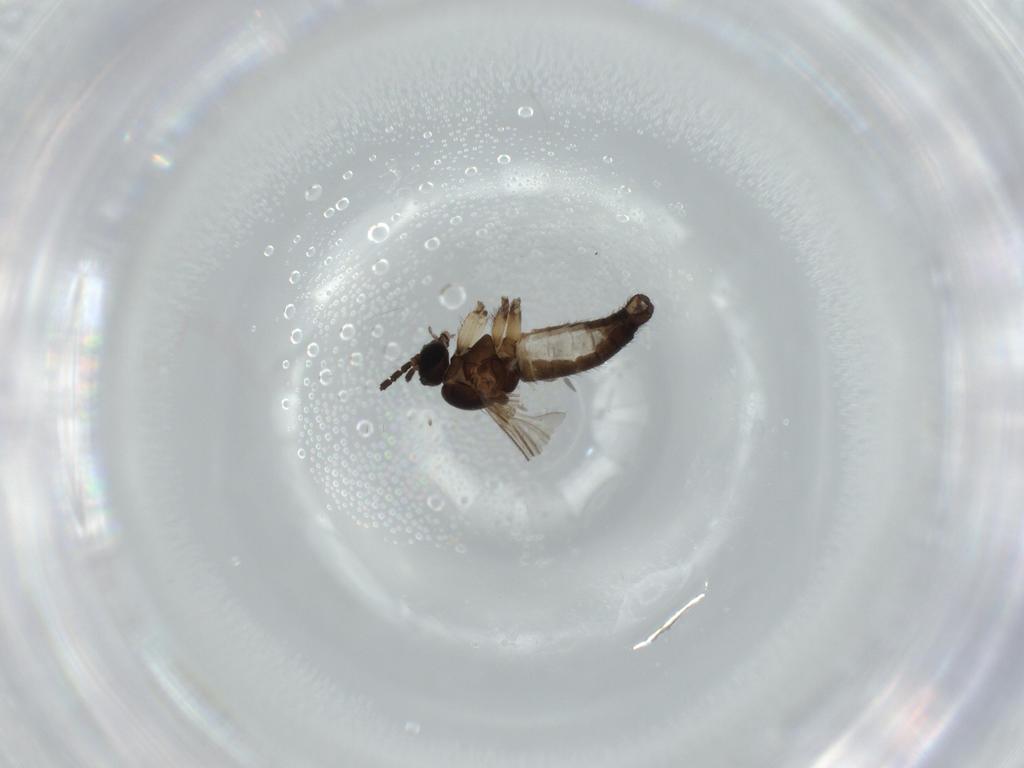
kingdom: Animalia
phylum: Arthropoda
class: Insecta
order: Diptera
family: Sciaridae
